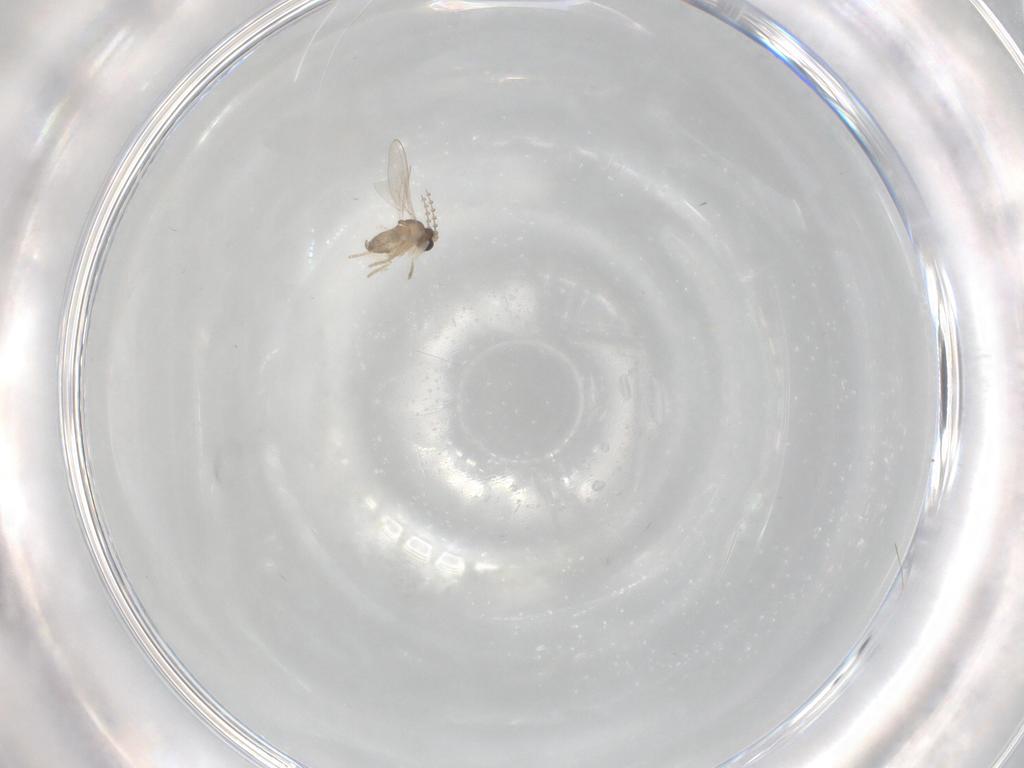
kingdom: Animalia
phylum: Arthropoda
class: Insecta
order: Diptera
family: Cecidomyiidae
